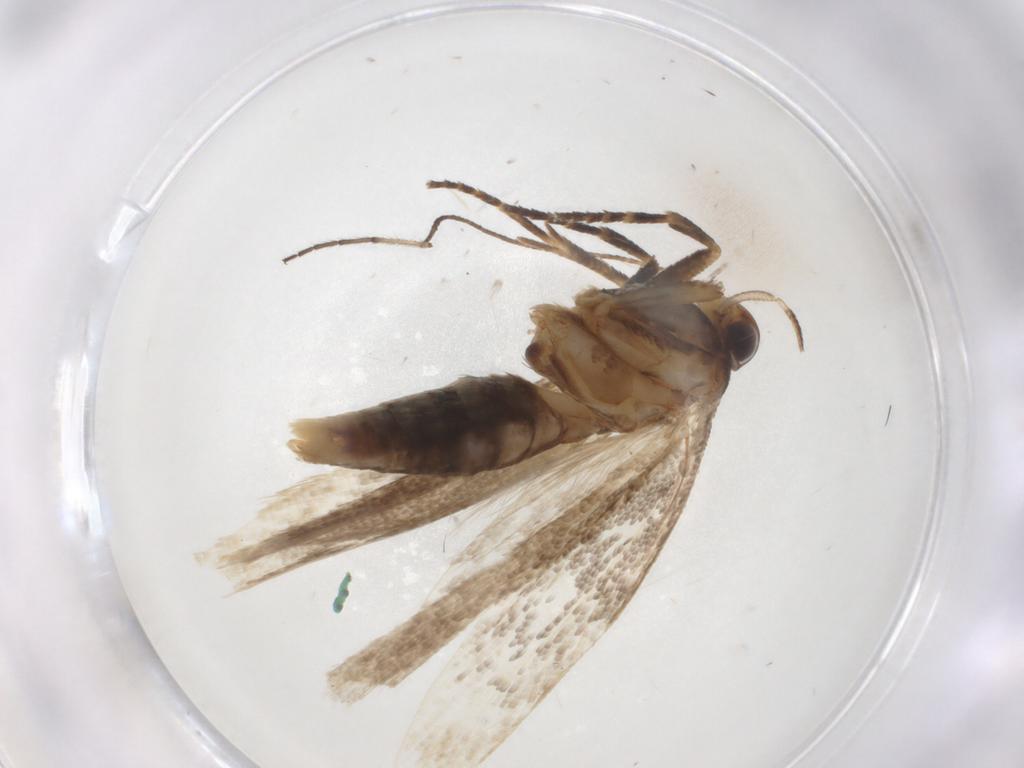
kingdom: Animalia
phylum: Arthropoda
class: Insecta
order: Lepidoptera
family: Gelechiidae
